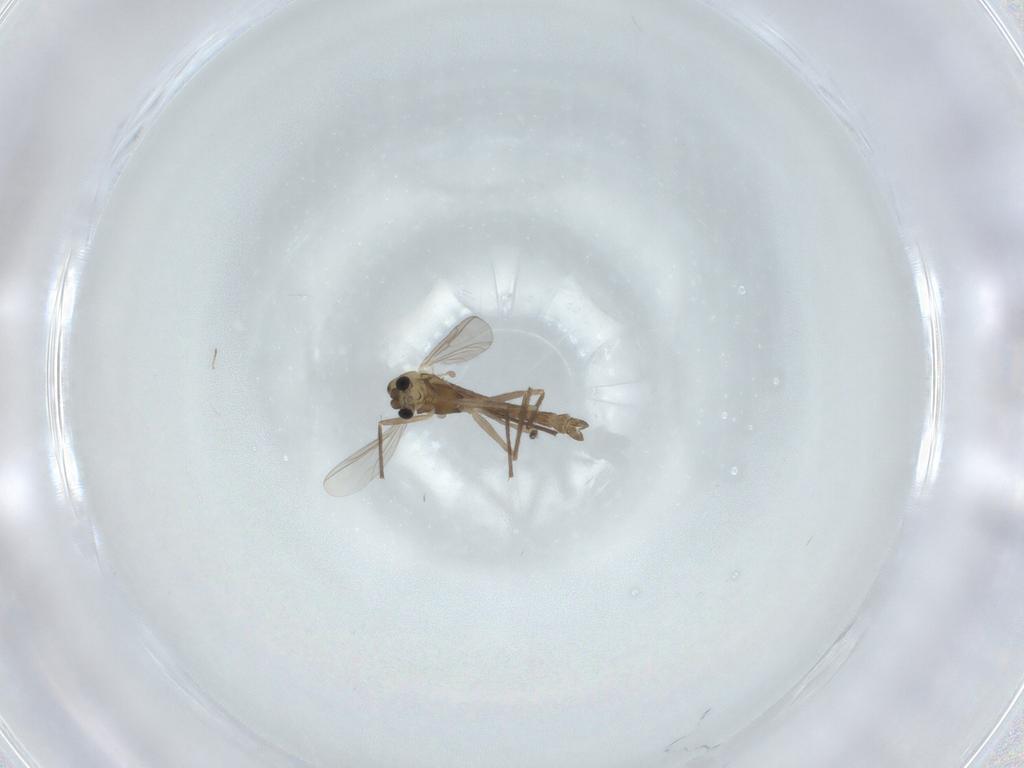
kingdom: Animalia
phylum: Arthropoda
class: Insecta
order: Diptera
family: Chironomidae
